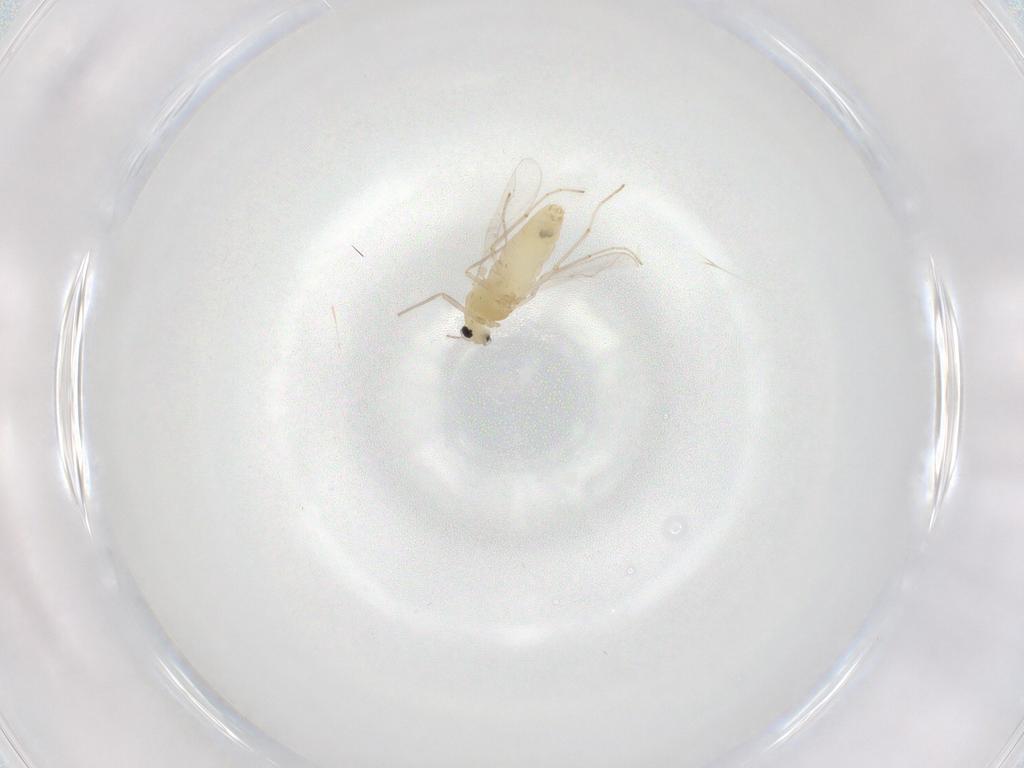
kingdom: Animalia
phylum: Arthropoda
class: Insecta
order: Diptera
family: Chironomidae
